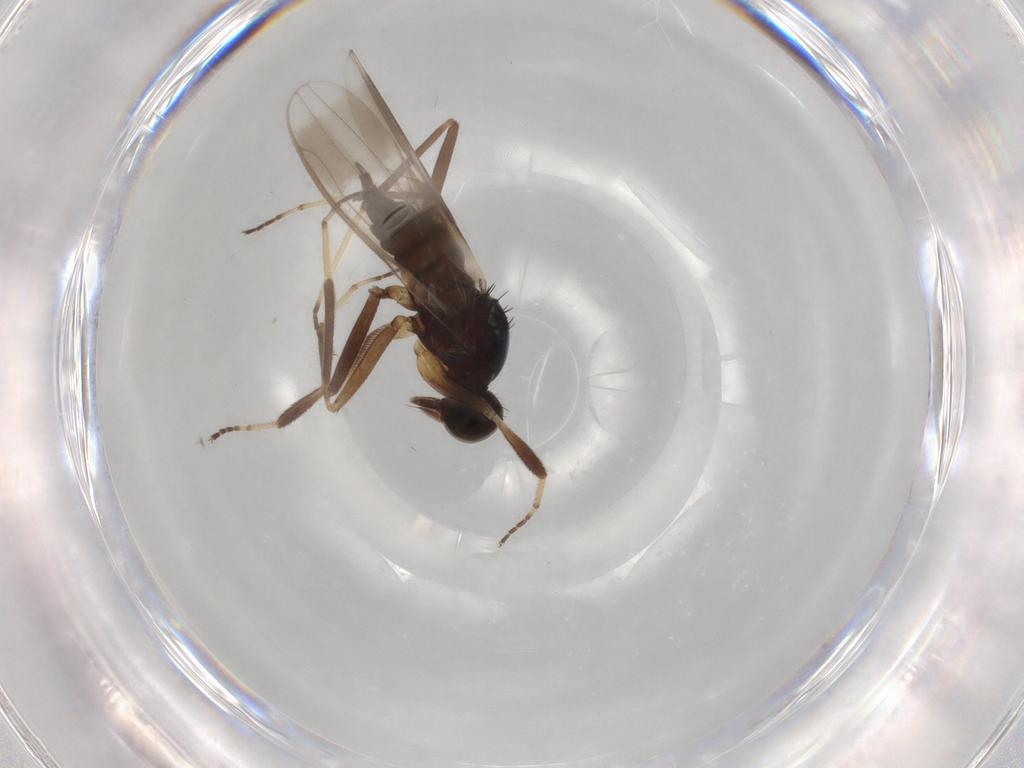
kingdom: Animalia
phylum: Arthropoda
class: Insecta
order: Diptera
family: Hybotidae
